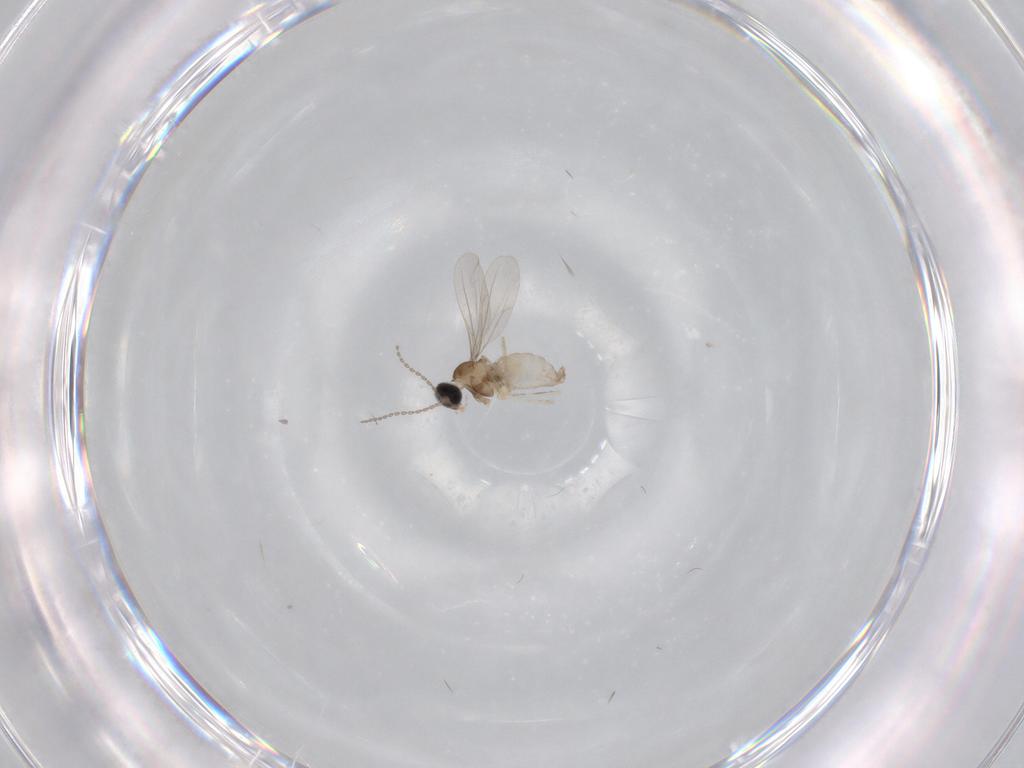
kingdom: Animalia
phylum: Arthropoda
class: Insecta
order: Diptera
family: Cecidomyiidae
